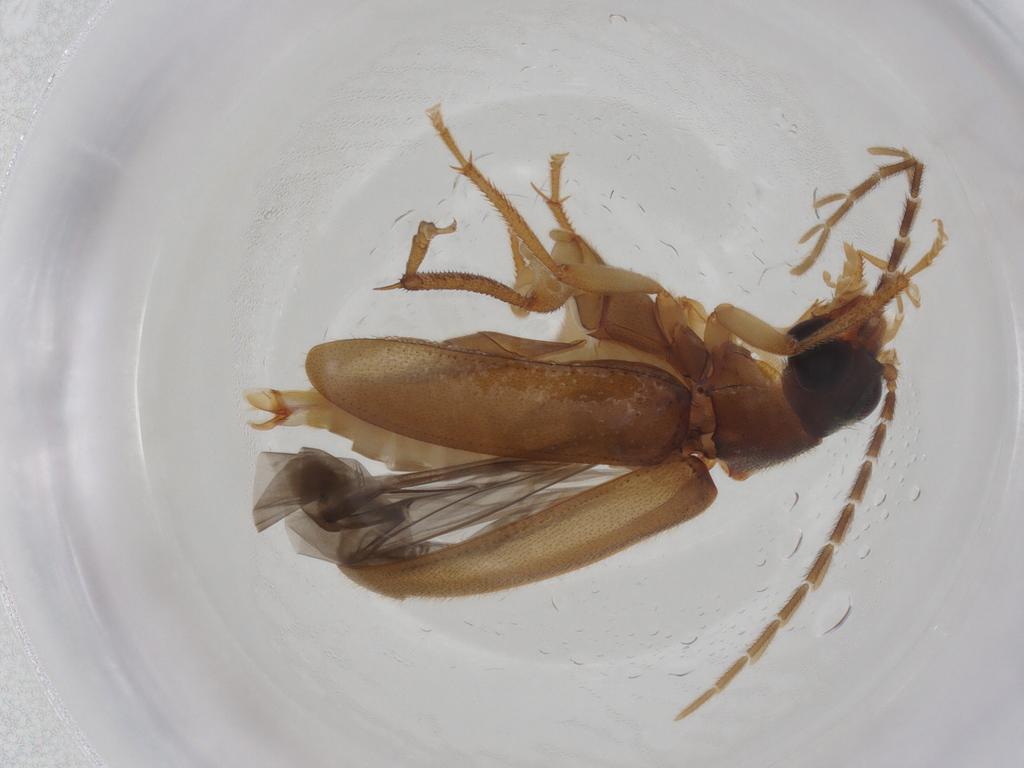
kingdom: Animalia
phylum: Arthropoda
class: Insecta
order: Coleoptera
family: Ptilodactylidae
